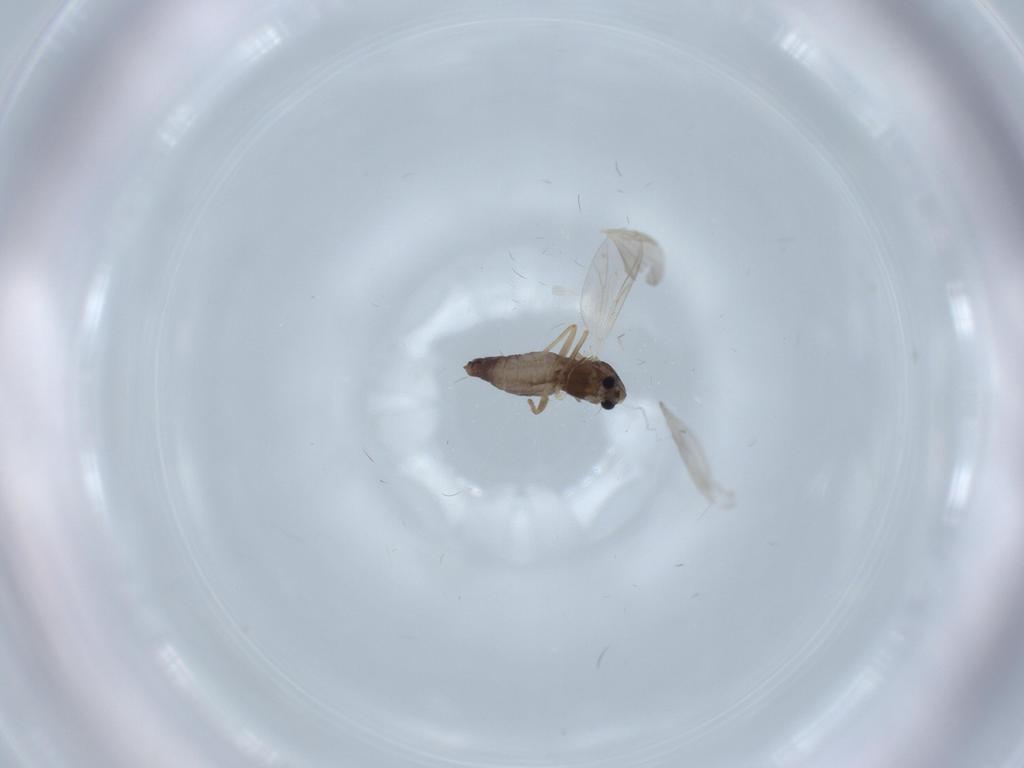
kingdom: Animalia
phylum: Arthropoda
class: Insecta
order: Diptera
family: Chironomidae
